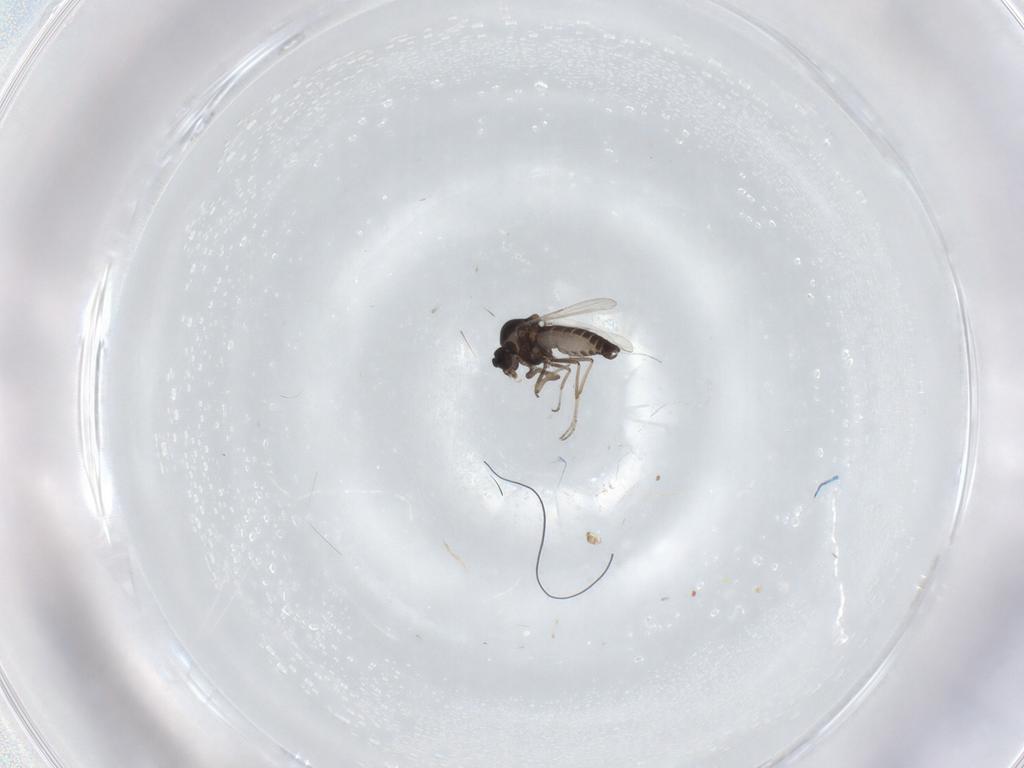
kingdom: Animalia
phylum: Arthropoda
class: Insecta
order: Diptera
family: Ceratopogonidae
